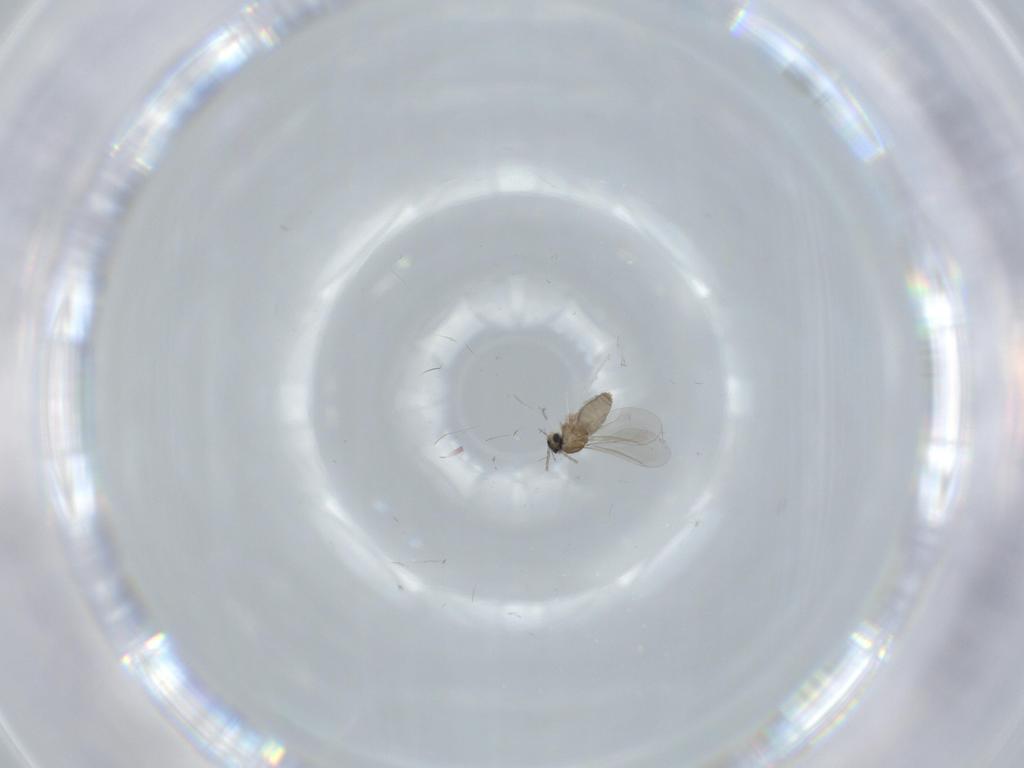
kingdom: Animalia
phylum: Arthropoda
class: Insecta
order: Diptera
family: Cecidomyiidae
